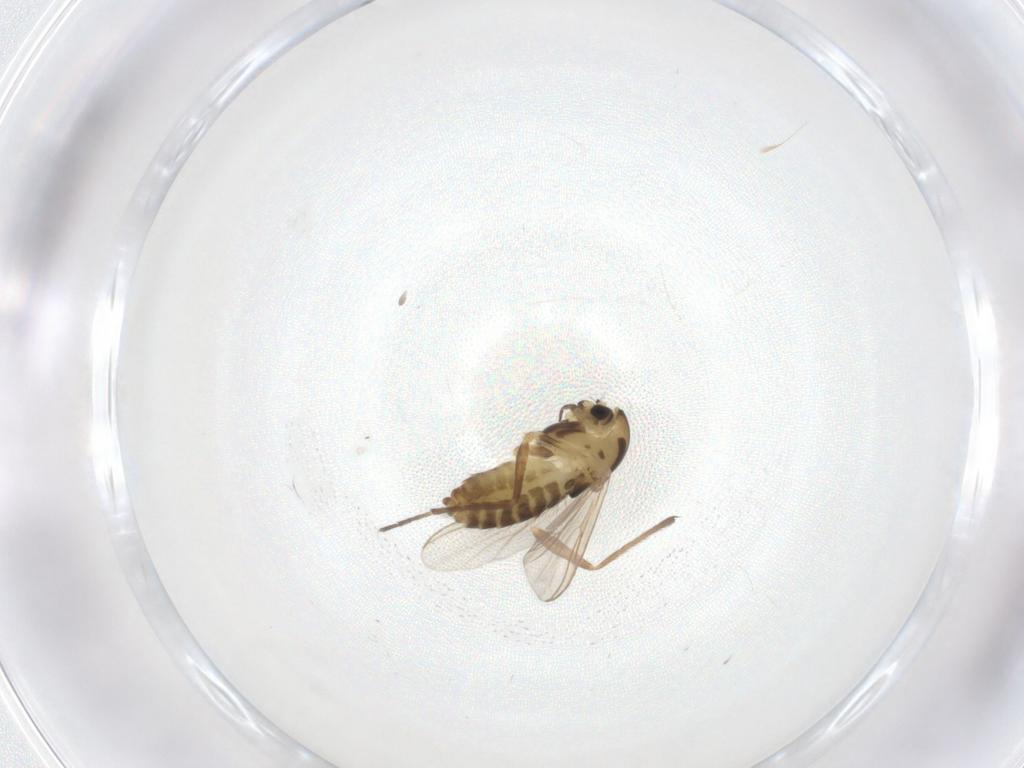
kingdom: Animalia
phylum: Arthropoda
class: Insecta
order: Diptera
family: Chironomidae
